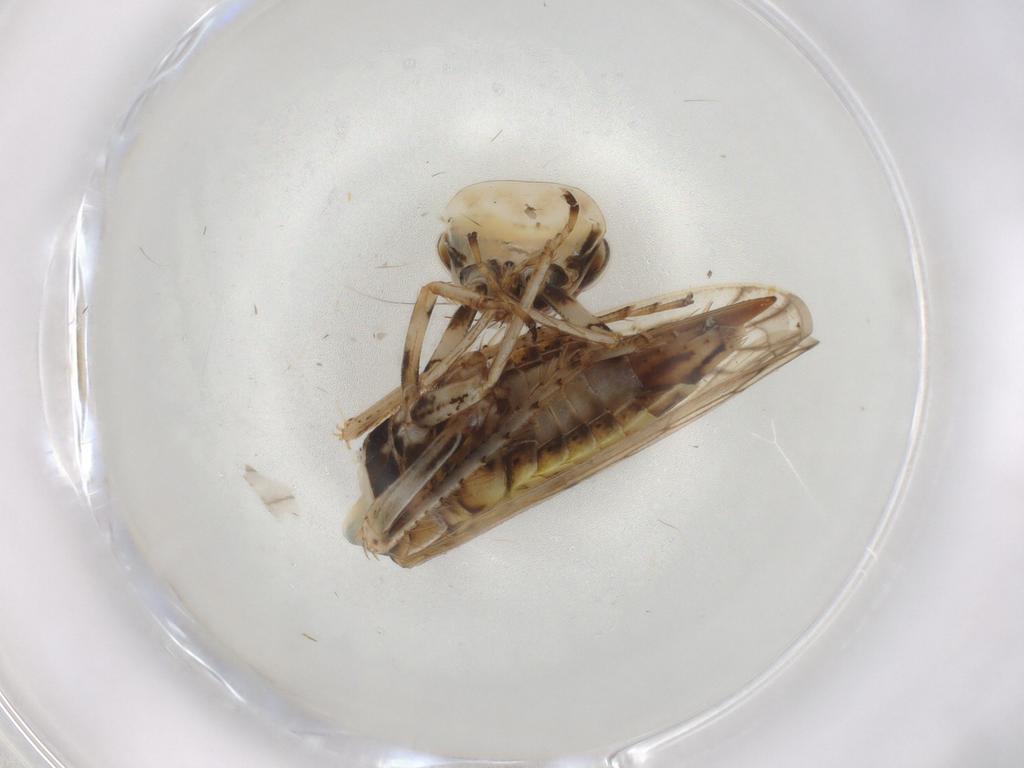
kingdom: Animalia
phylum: Arthropoda
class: Insecta
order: Hemiptera
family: Cicadellidae
